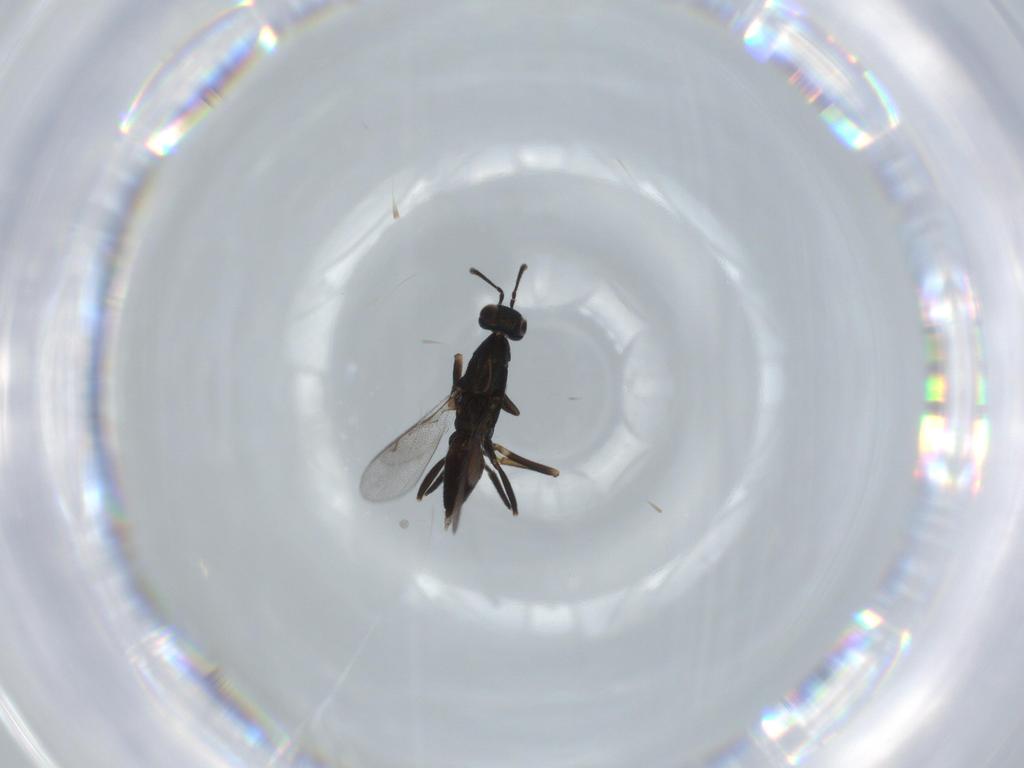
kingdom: Animalia
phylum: Arthropoda
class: Insecta
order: Hymenoptera
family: Eupelmidae
